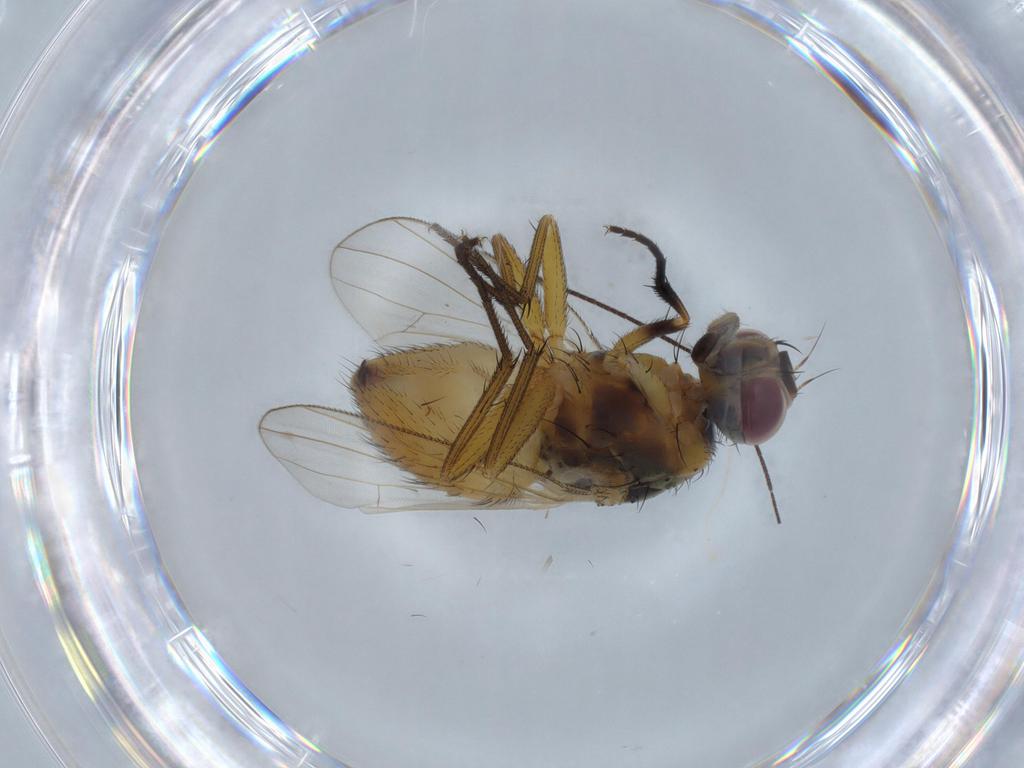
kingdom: Animalia
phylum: Arthropoda
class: Insecta
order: Diptera
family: Muscidae
